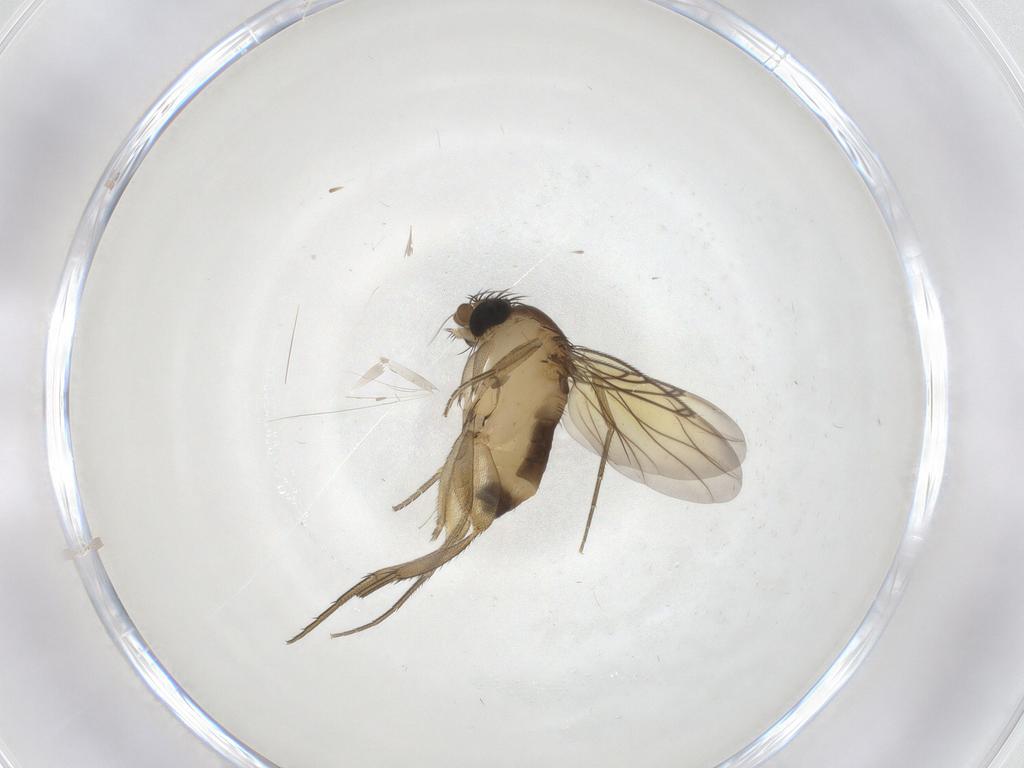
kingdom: Animalia
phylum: Arthropoda
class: Insecta
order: Diptera
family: Cecidomyiidae
